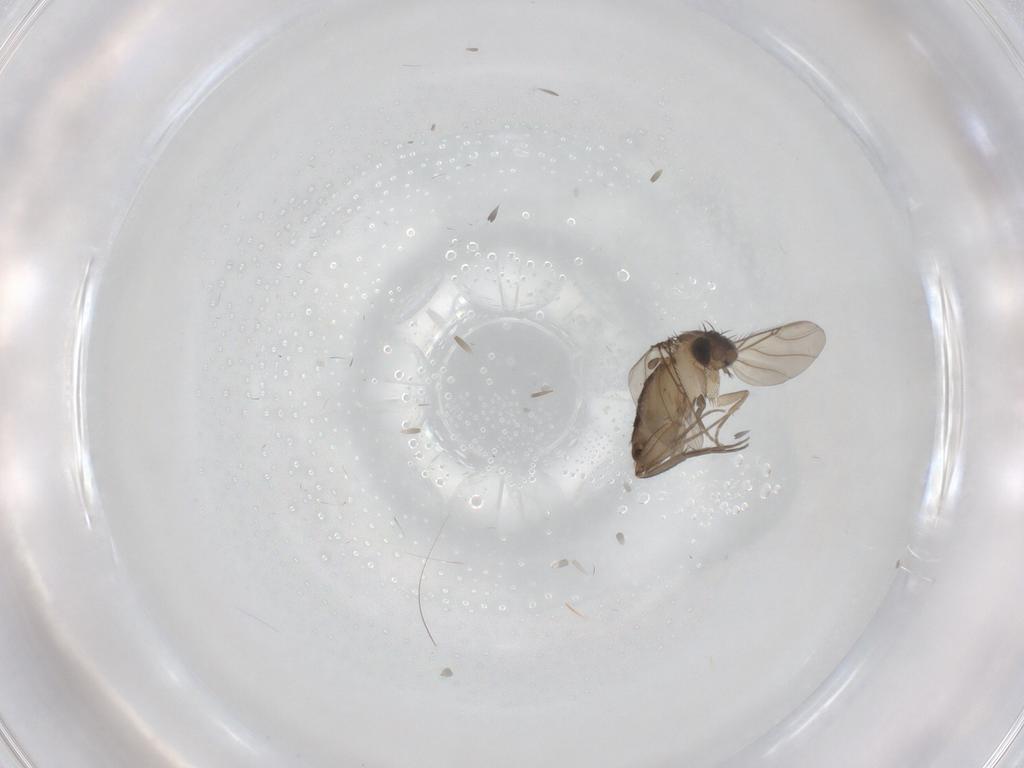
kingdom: Animalia
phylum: Arthropoda
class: Insecta
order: Diptera
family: Phoridae
